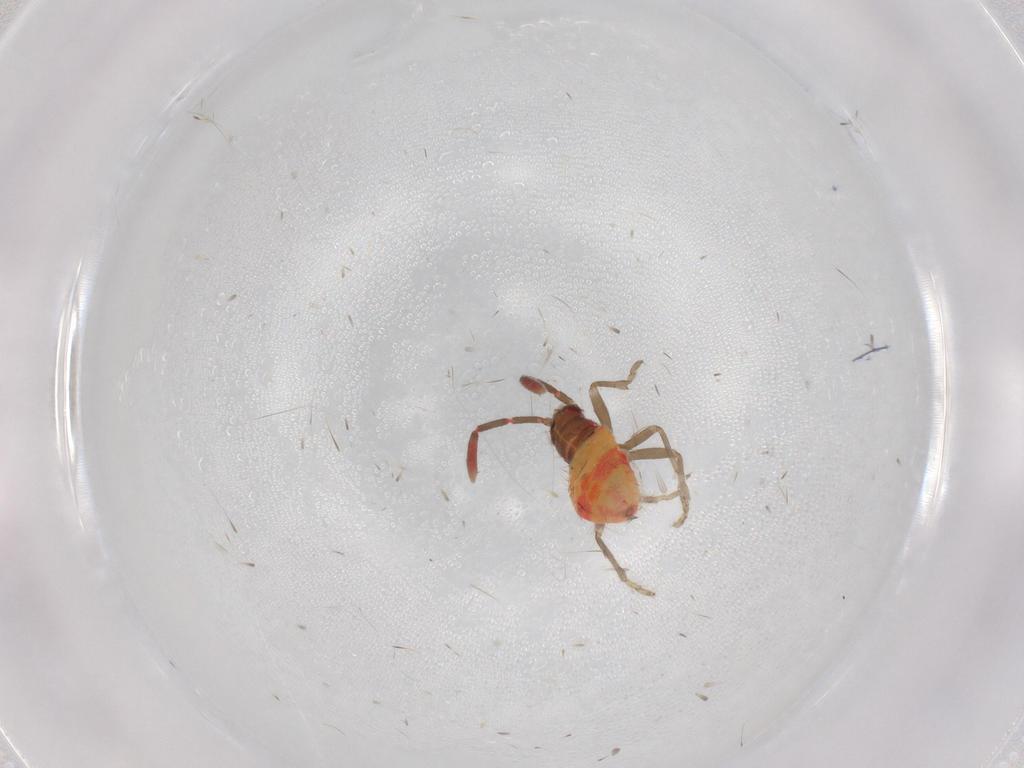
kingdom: Animalia
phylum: Arthropoda
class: Insecta
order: Hemiptera
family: Rhyparochromidae
